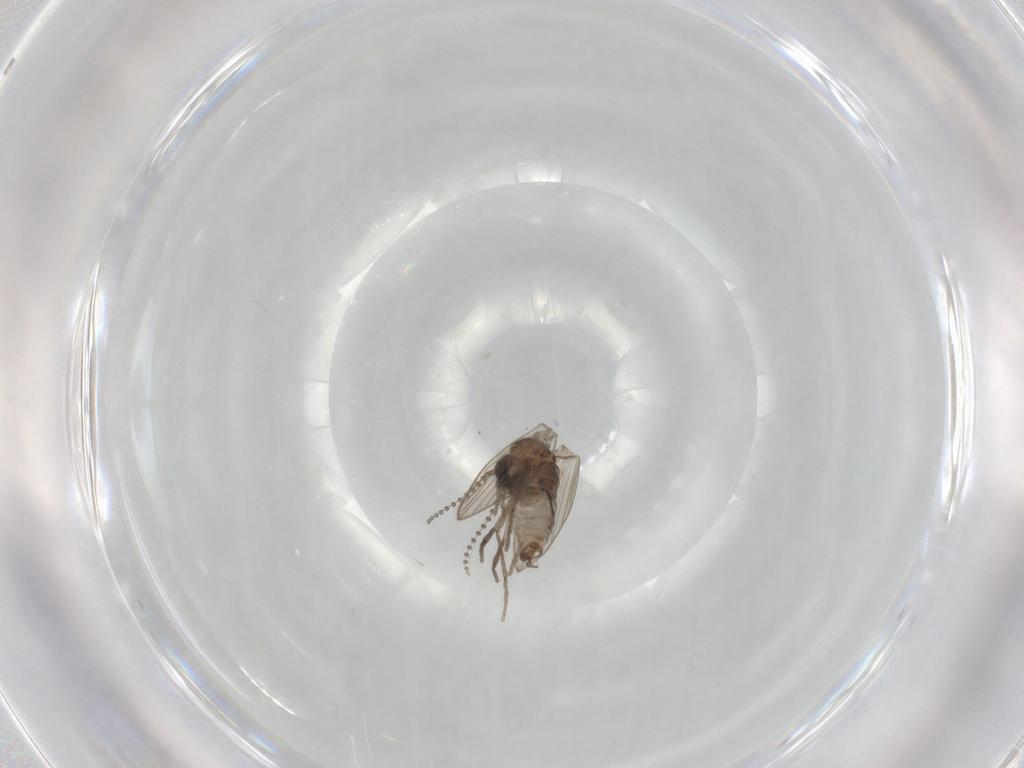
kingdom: Animalia
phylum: Arthropoda
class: Insecta
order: Diptera
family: Psychodidae
